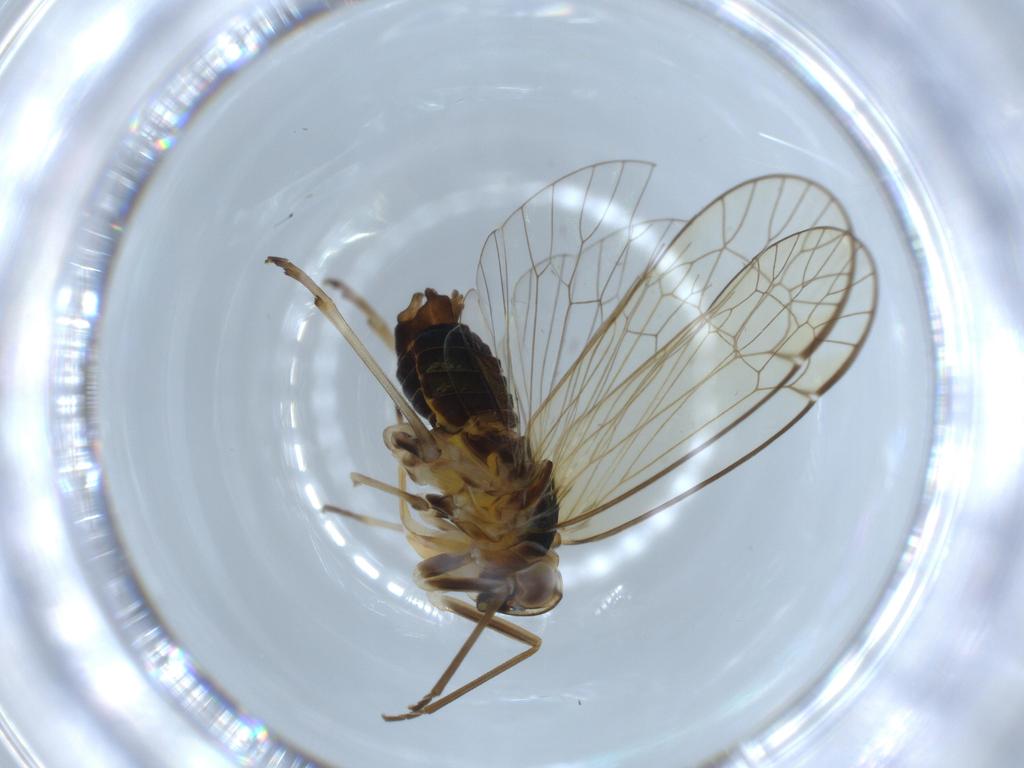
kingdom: Animalia
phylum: Arthropoda
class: Insecta
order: Hemiptera
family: Kinnaridae
